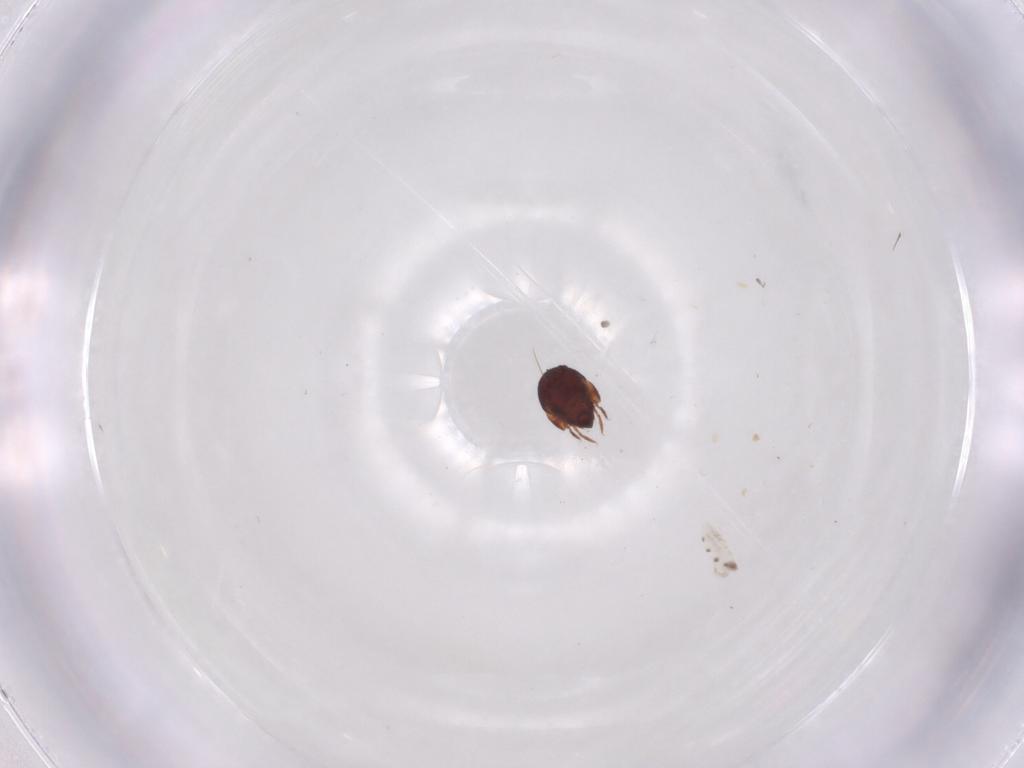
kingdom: Animalia
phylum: Arthropoda
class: Arachnida
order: Sarcoptiformes
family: Humerobatidae
